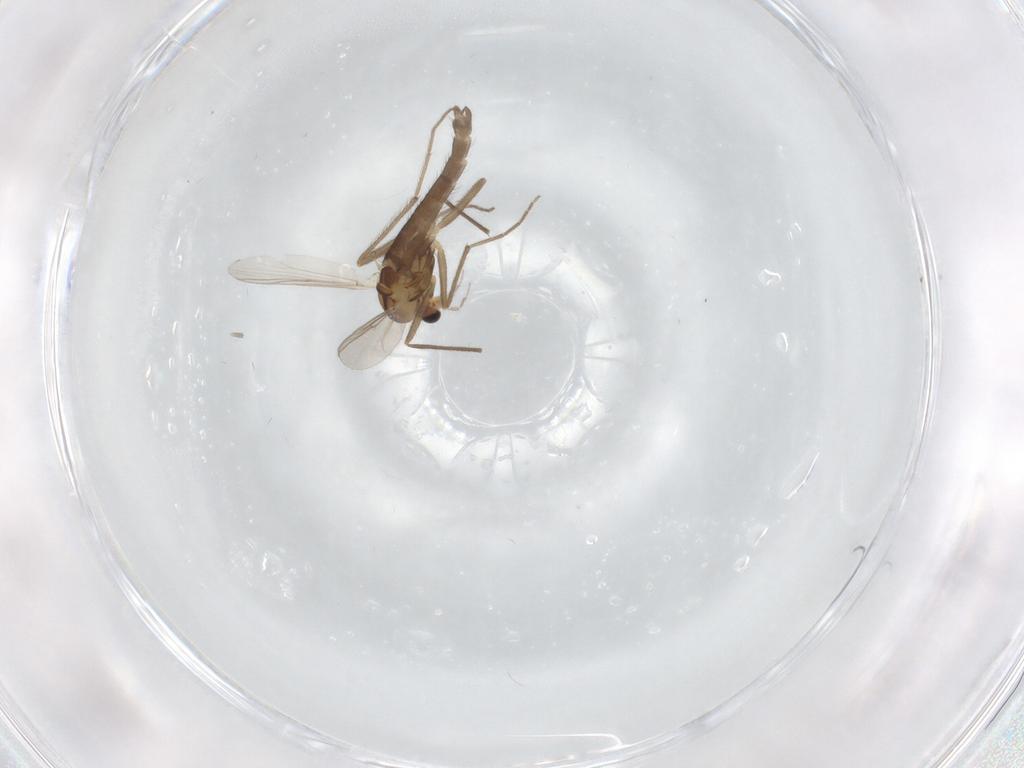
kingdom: Animalia
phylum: Arthropoda
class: Insecta
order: Diptera
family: Chironomidae
